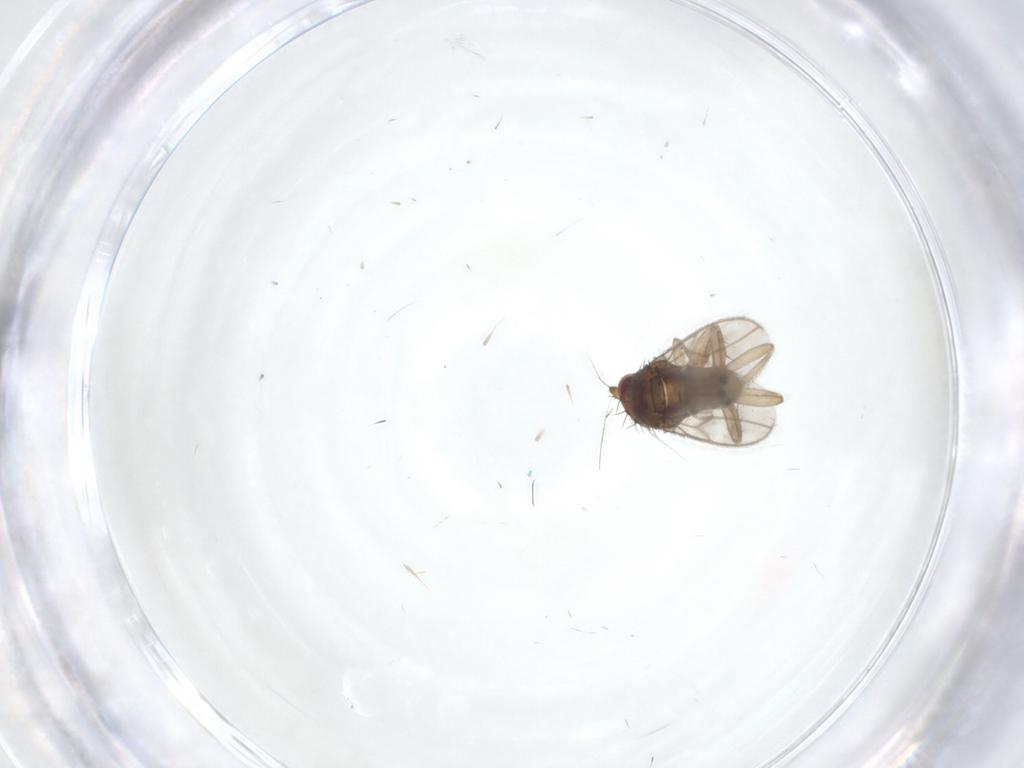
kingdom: Animalia
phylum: Arthropoda
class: Insecta
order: Diptera
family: Sphaeroceridae
